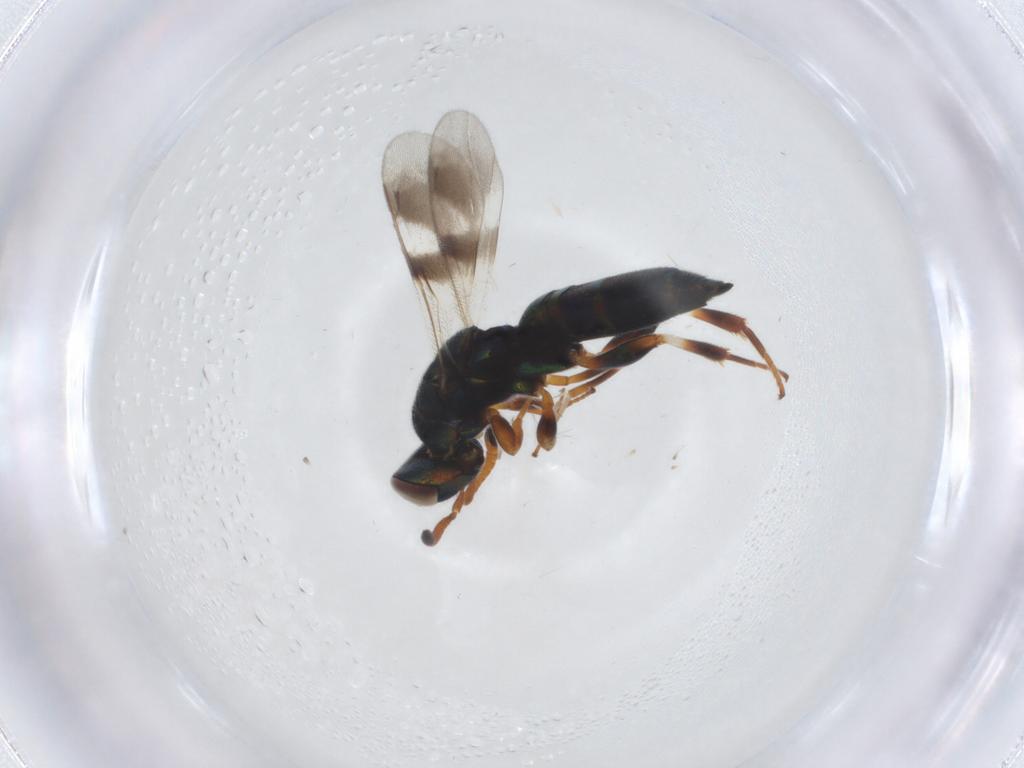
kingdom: Animalia
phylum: Arthropoda
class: Insecta
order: Hymenoptera
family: Cleonyminae
